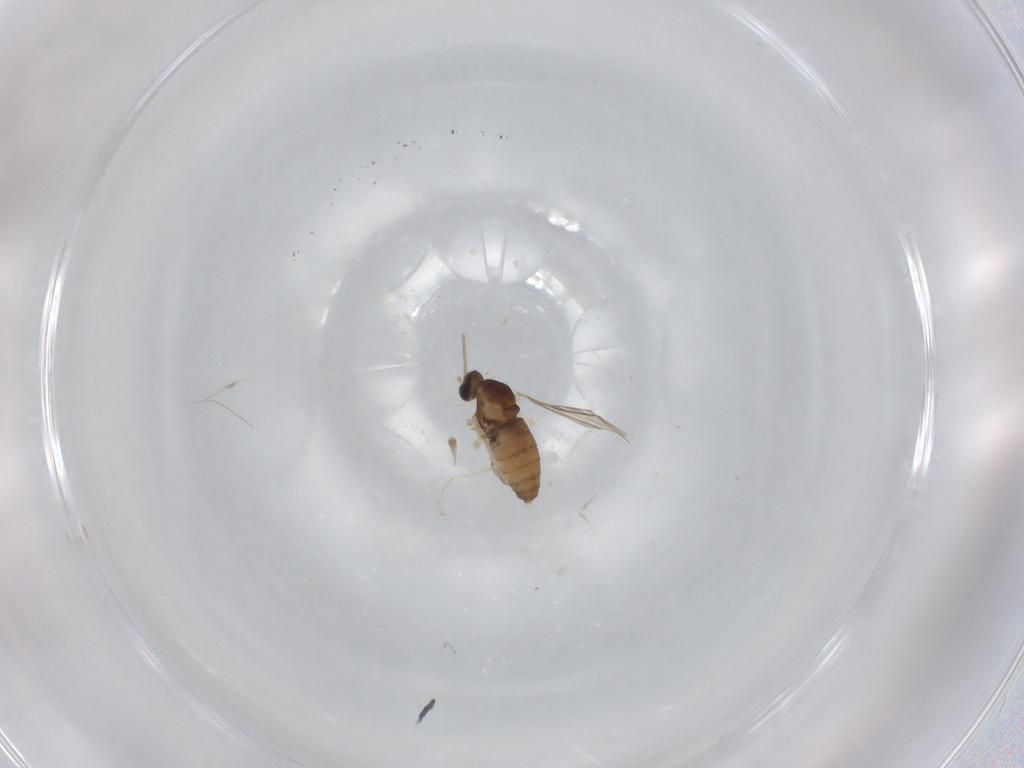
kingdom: Animalia
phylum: Arthropoda
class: Insecta
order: Diptera
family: Cecidomyiidae
